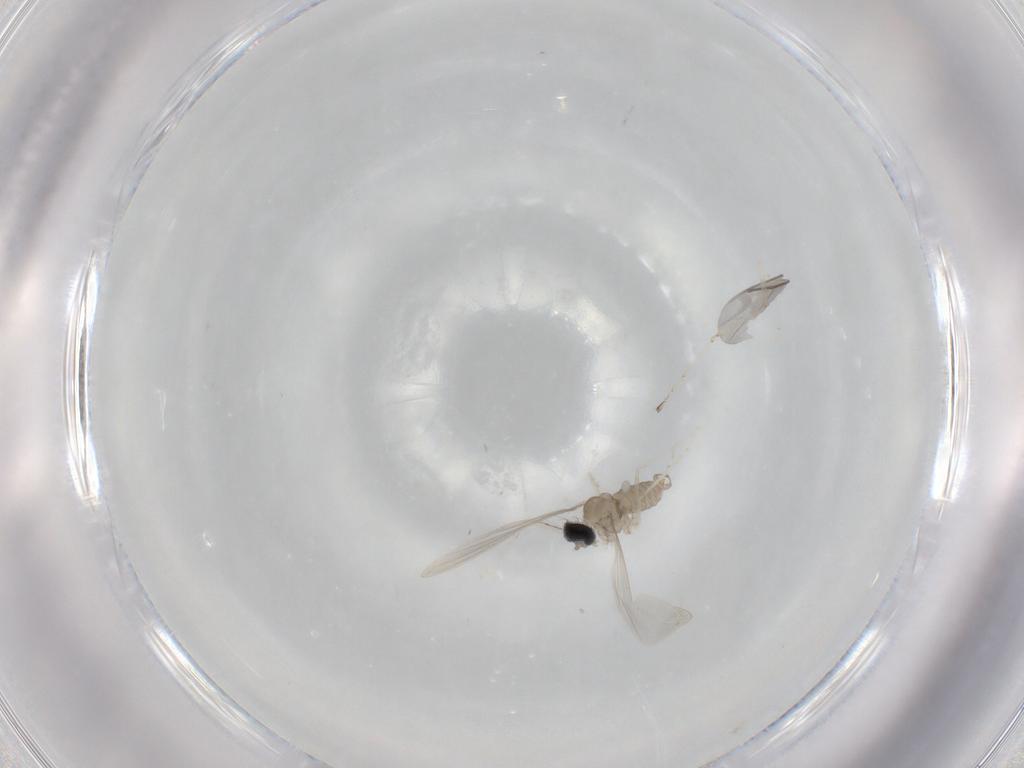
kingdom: Animalia
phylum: Arthropoda
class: Insecta
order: Diptera
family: Cecidomyiidae
